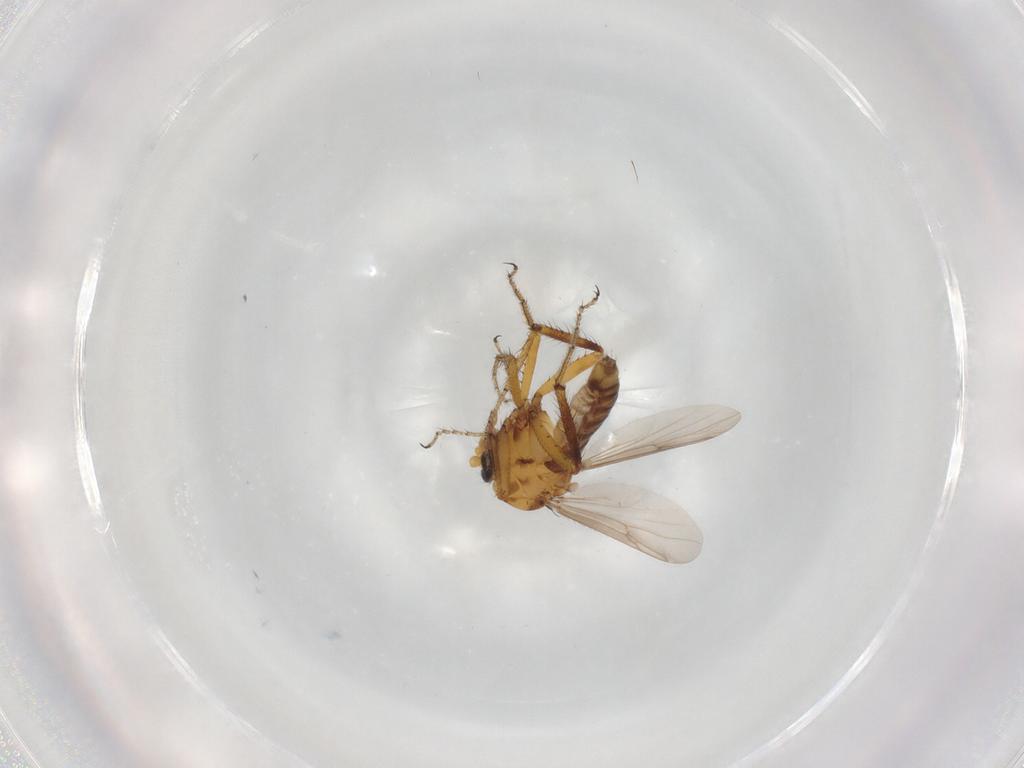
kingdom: Animalia
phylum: Arthropoda
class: Insecta
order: Diptera
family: Ceratopogonidae
